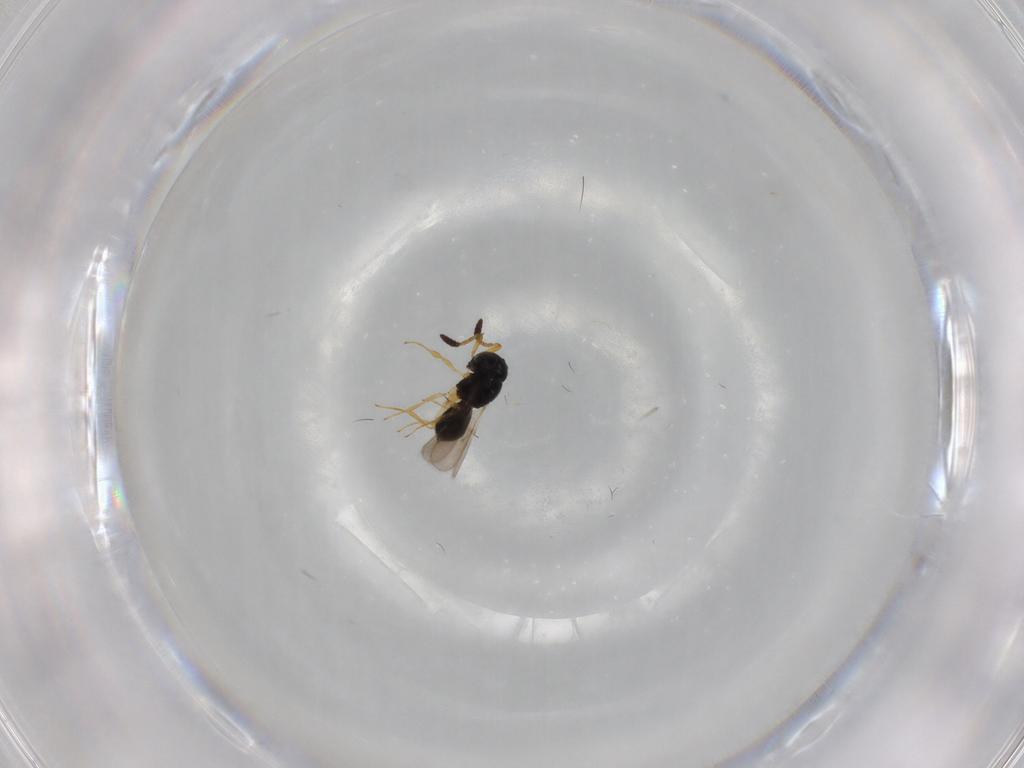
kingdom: Animalia
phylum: Arthropoda
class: Insecta
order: Hymenoptera
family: Scelionidae
